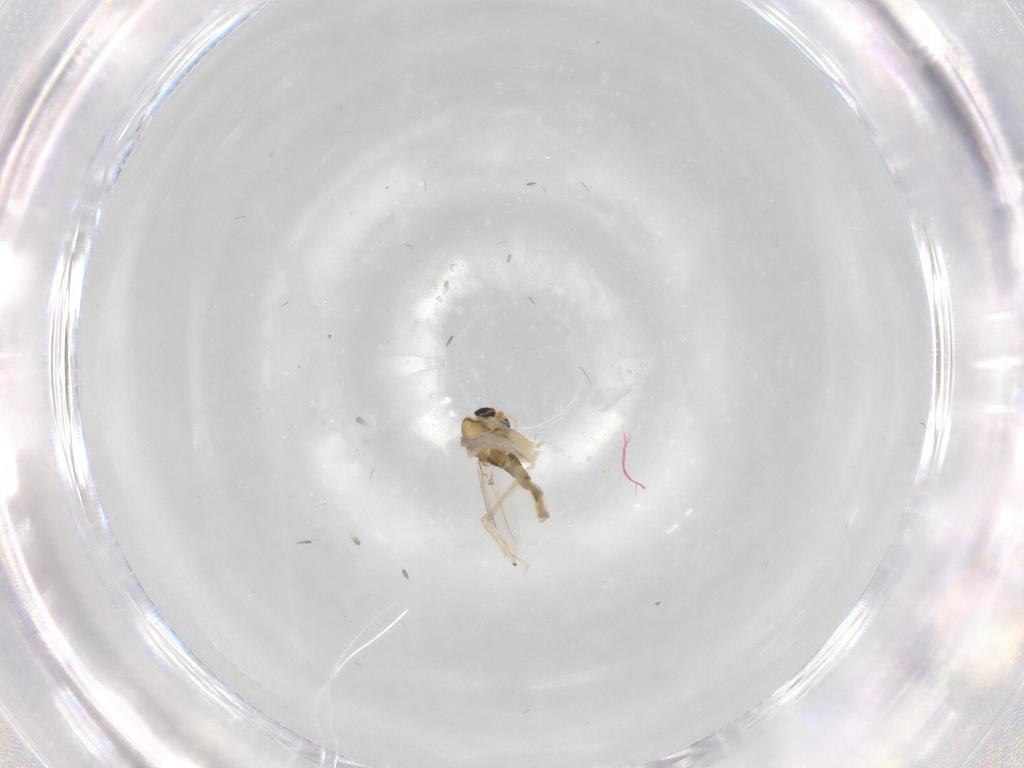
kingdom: Animalia
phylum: Arthropoda
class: Insecta
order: Diptera
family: Chironomidae
